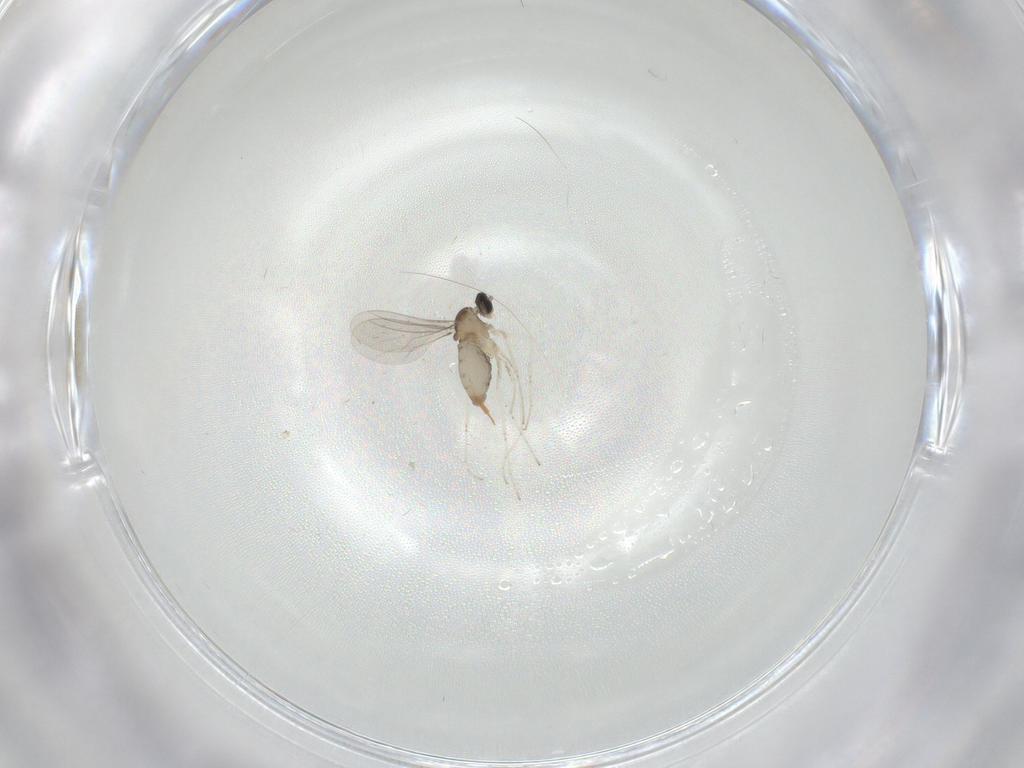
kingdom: Animalia
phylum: Arthropoda
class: Insecta
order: Diptera
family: Cecidomyiidae
